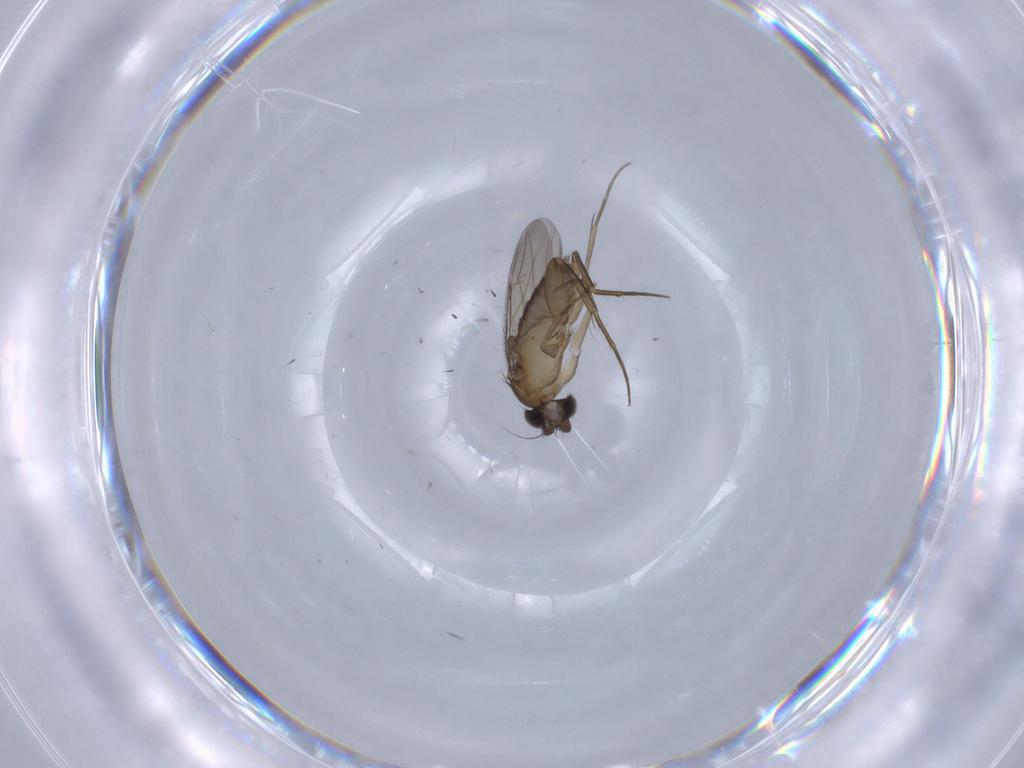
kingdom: Animalia
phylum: Arthropoda
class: Insecta
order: Diptera
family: Phoridae
